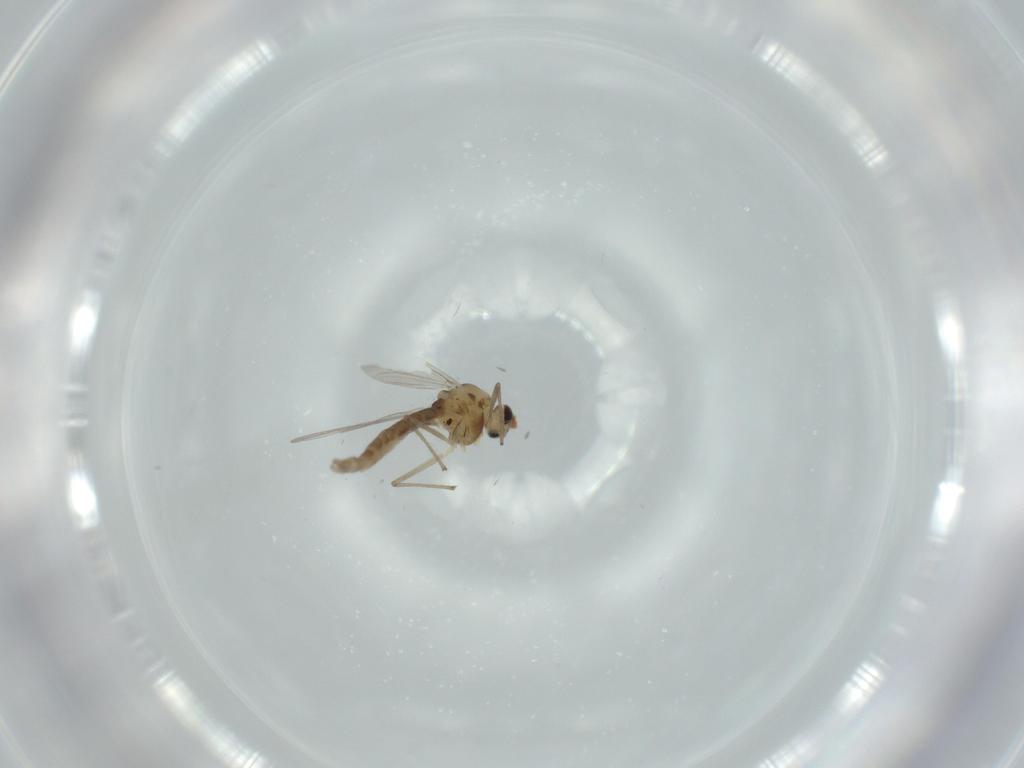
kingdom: Animalia
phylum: Arthropoda
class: Insecta
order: Diptera
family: Chironomidae
